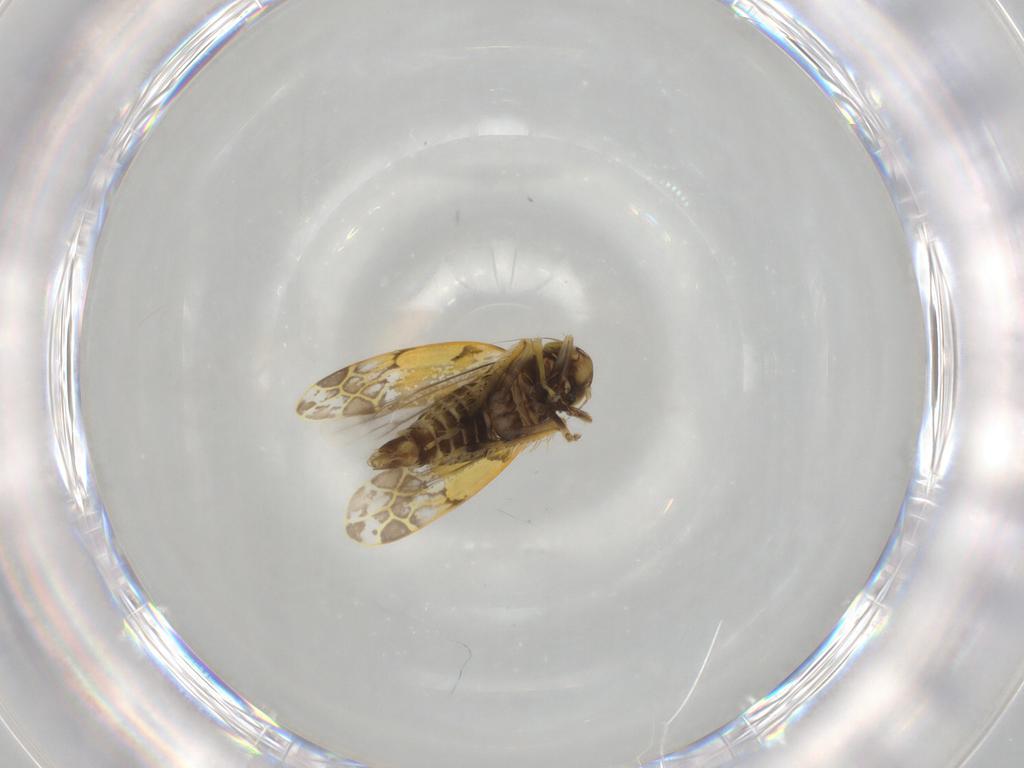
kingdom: Animalia
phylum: Arthropoda
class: Insecta
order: Hemiptera
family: Cicadellidae
